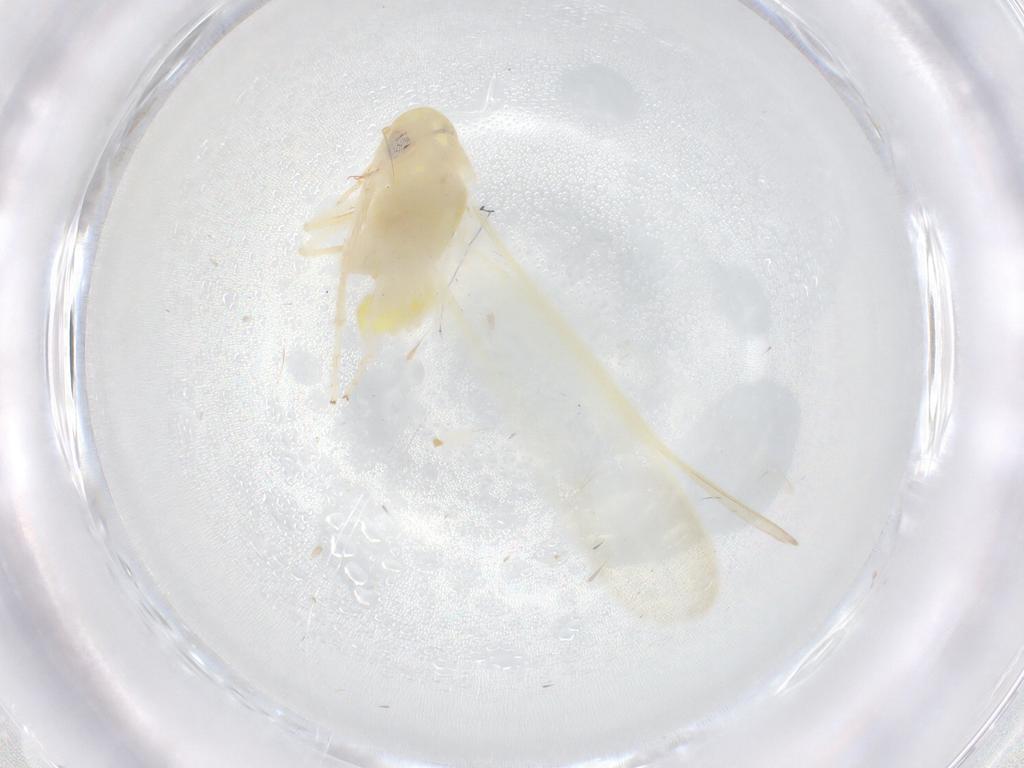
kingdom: Animalia
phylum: Arthropoda
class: Insecta
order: Hemiptera
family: Cicadellidae
